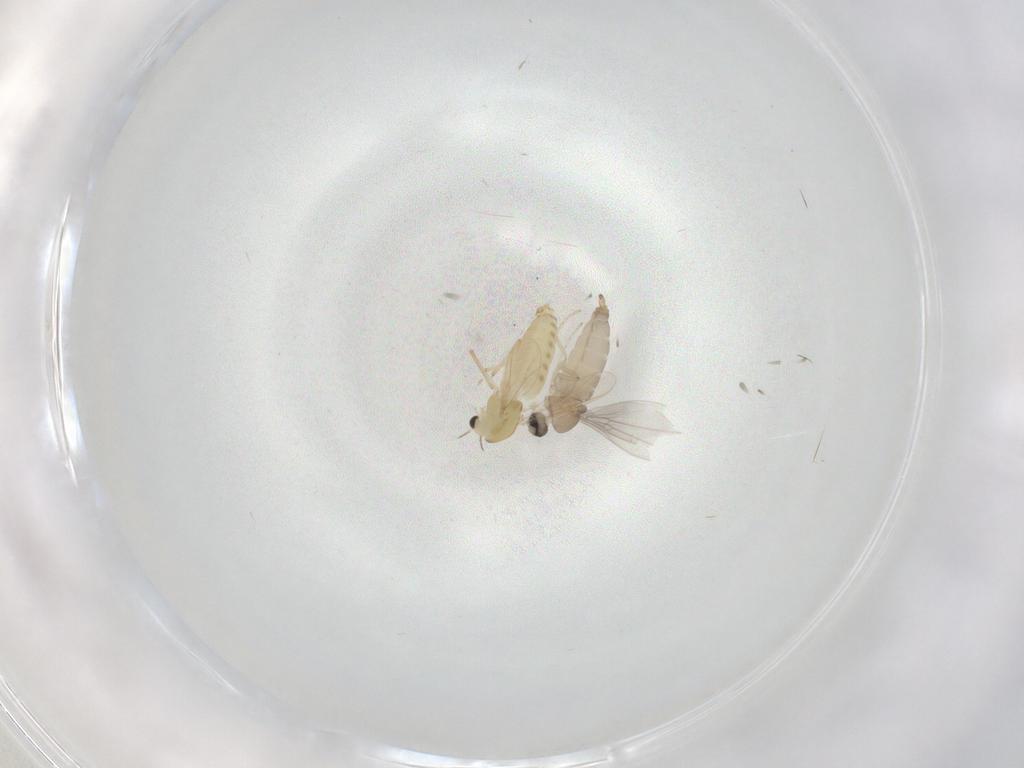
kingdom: Animalia
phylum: Arthropoda
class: Insecta
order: Diptera
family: Chironomidae
